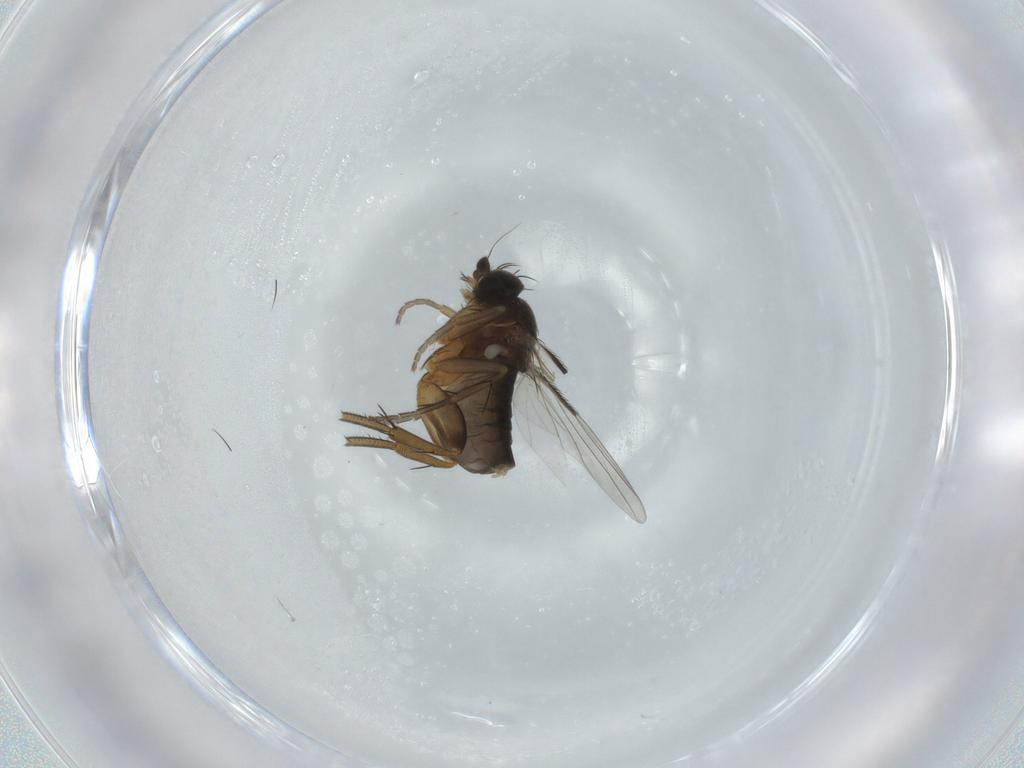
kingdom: Animalia
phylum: Arthropoda
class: Insecta
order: Diptera
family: Phoridae
